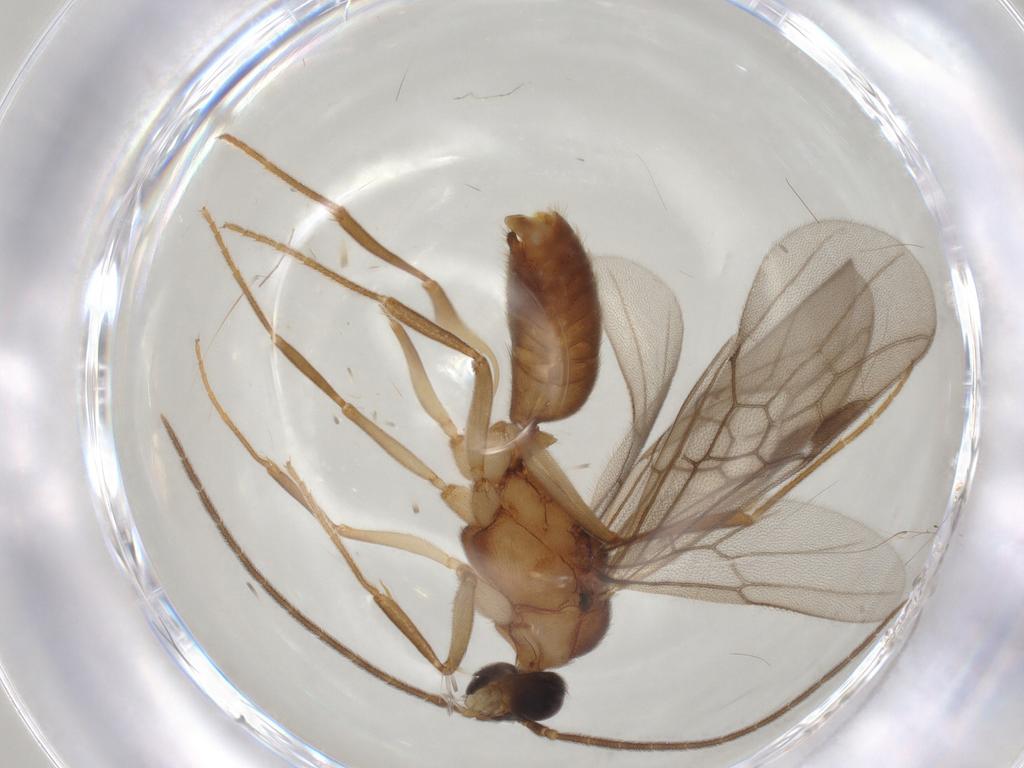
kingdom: Animalia
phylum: Arthropoda
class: Insecta
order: Hymenoptera
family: Formicidae
